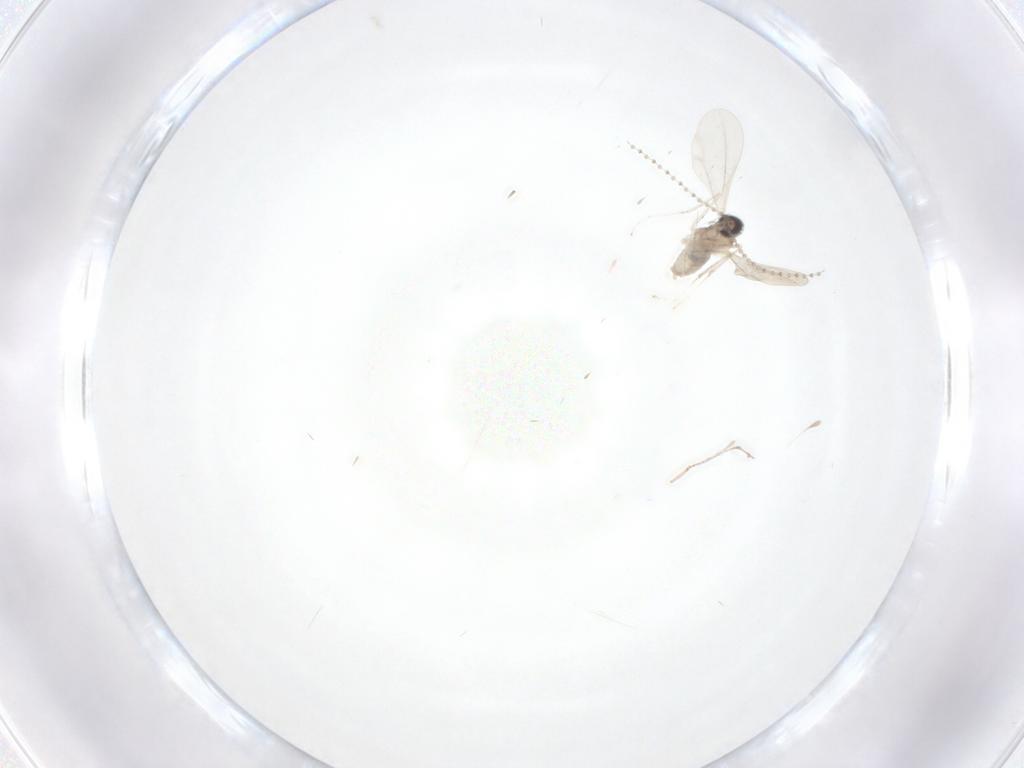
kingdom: Animalia
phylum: Arthropoda
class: Insecta
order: Diptera
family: Cecidomyiidae
